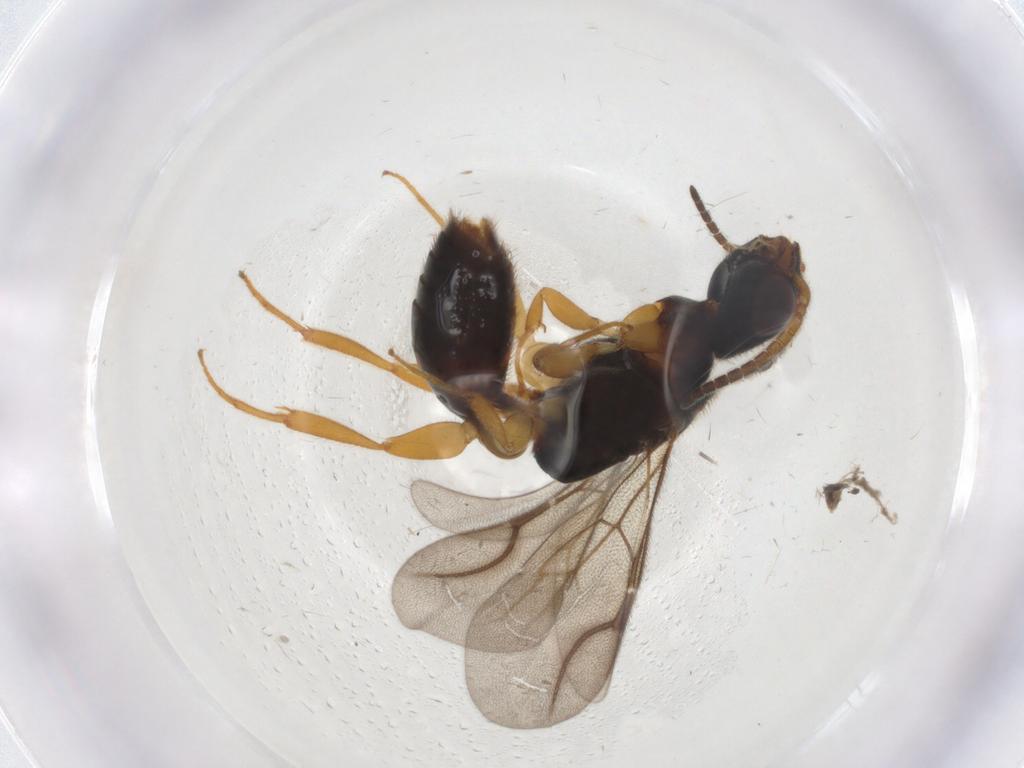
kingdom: Animalia
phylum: Arthropoda
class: Insecta
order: Hymenoptera
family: Bethylidae
